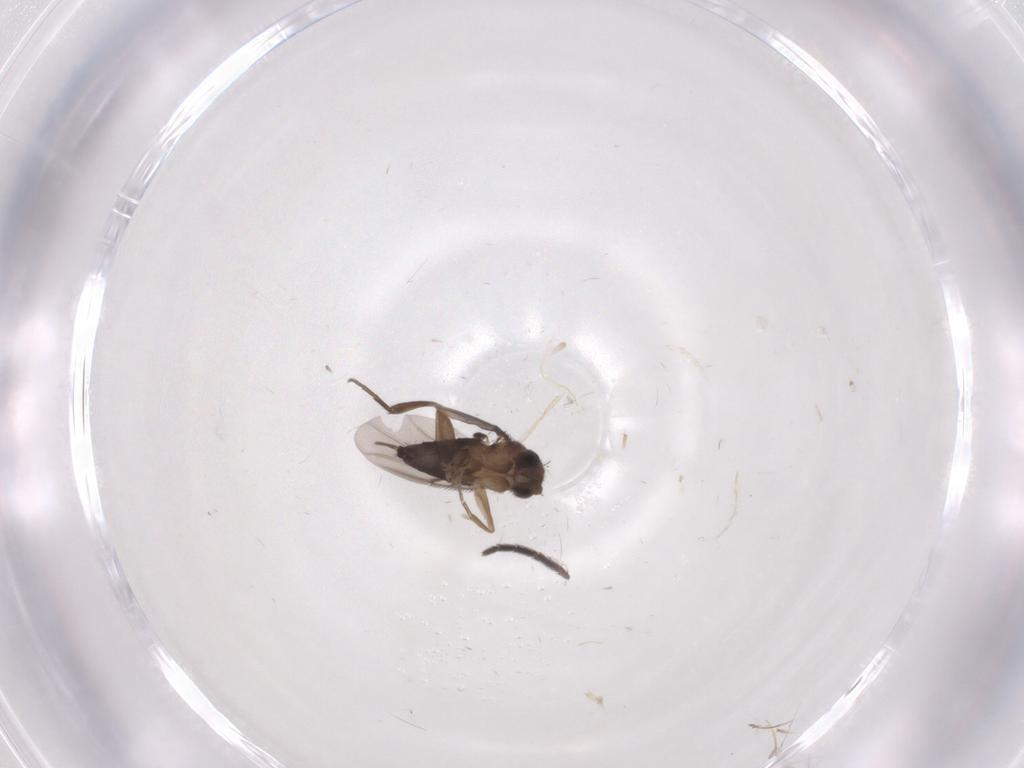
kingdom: Animalia
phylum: Arthropoda
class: Insecta
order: Diptera
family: Phoridae
